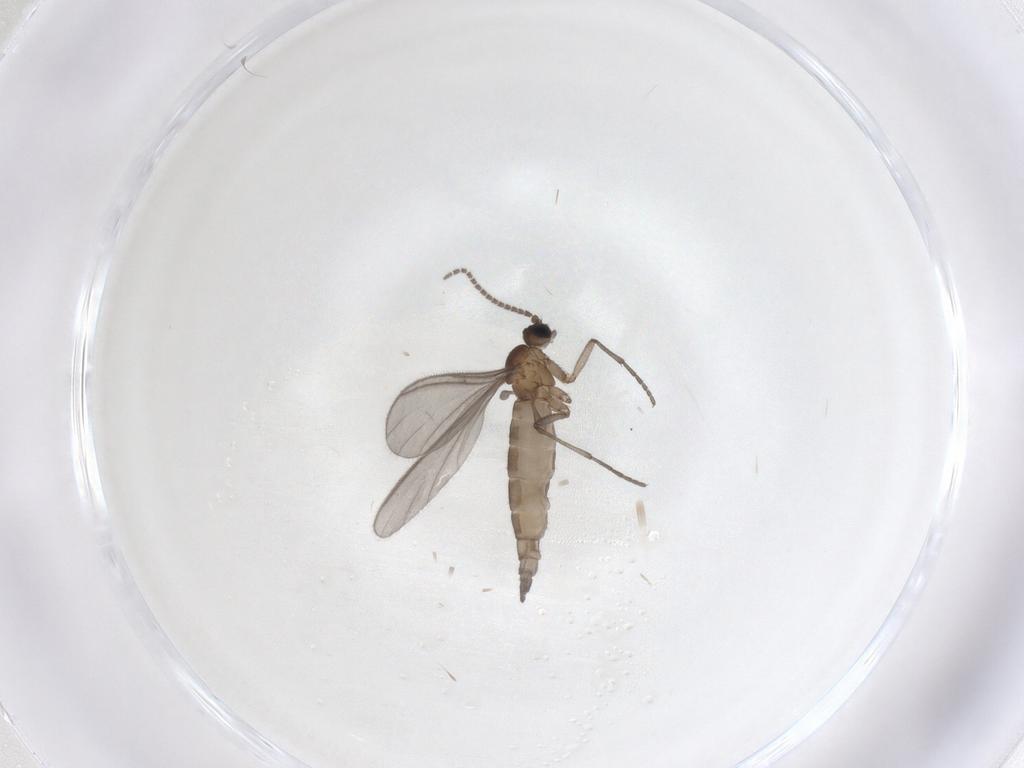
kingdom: Animalia
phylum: Arthropoda
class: Insecta
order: Diptera
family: Sciaridae
